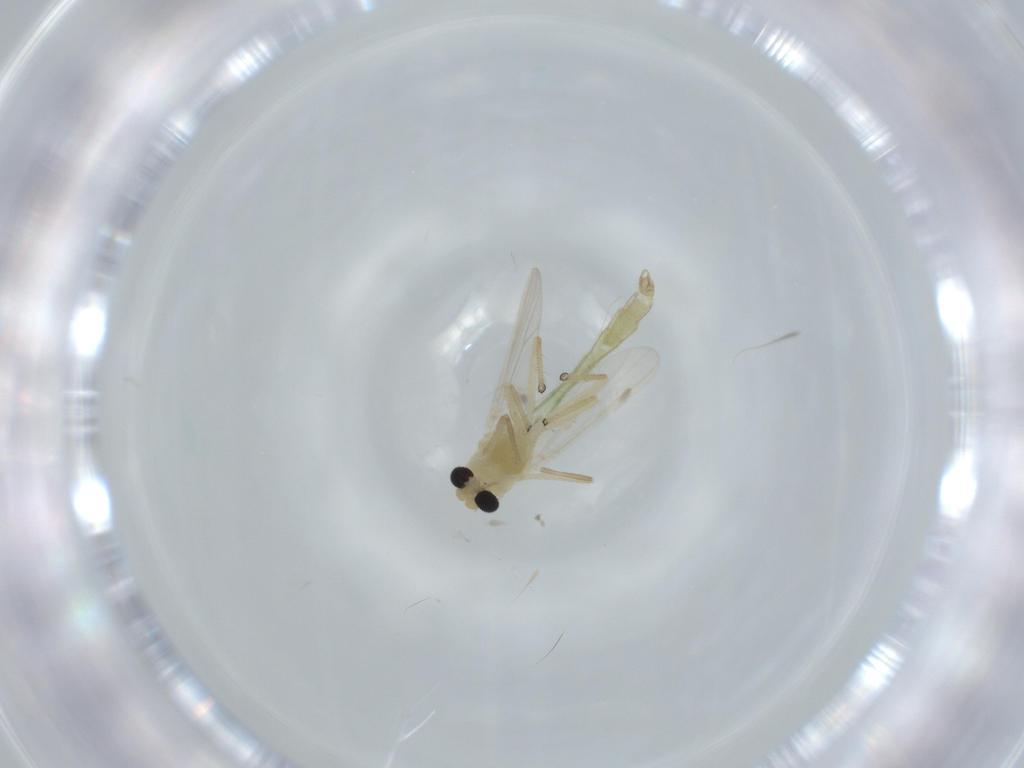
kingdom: Animalia
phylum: Arthropoda
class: Insecta
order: Diptera
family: Chironomidae
